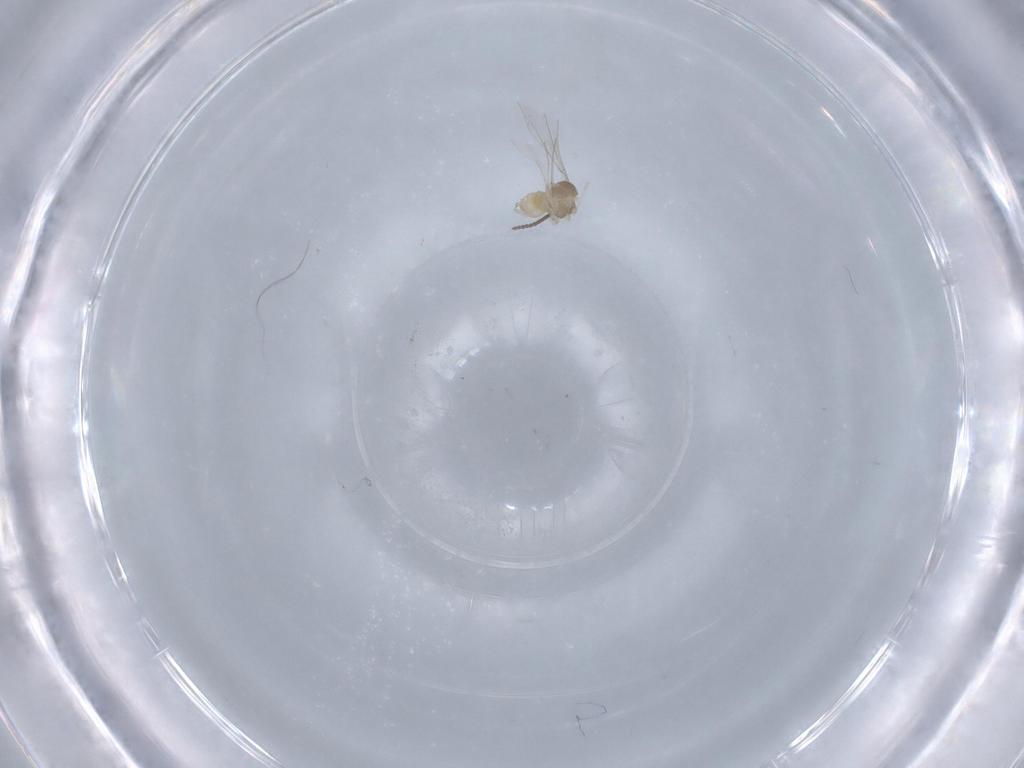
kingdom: Animalia
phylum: Arthropoda
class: Insecta
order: Diptera
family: Cecidomyiidae
